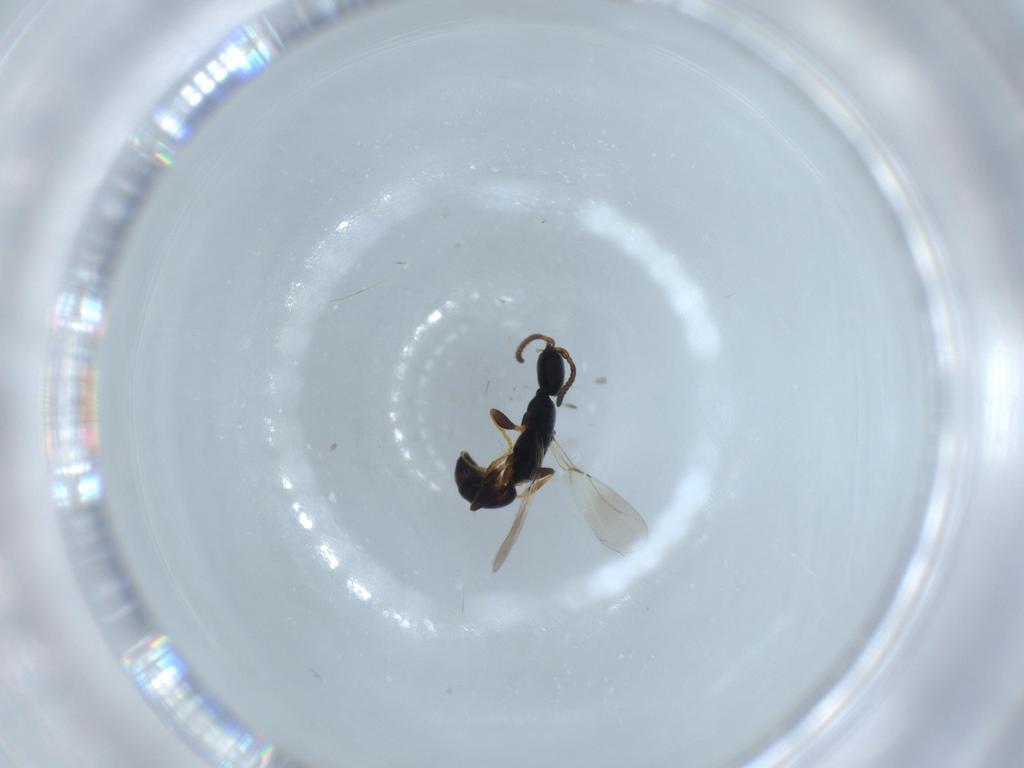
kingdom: Animalia
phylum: Arthropoda
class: Insecta
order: Hymenoptera
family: Bethylidae
